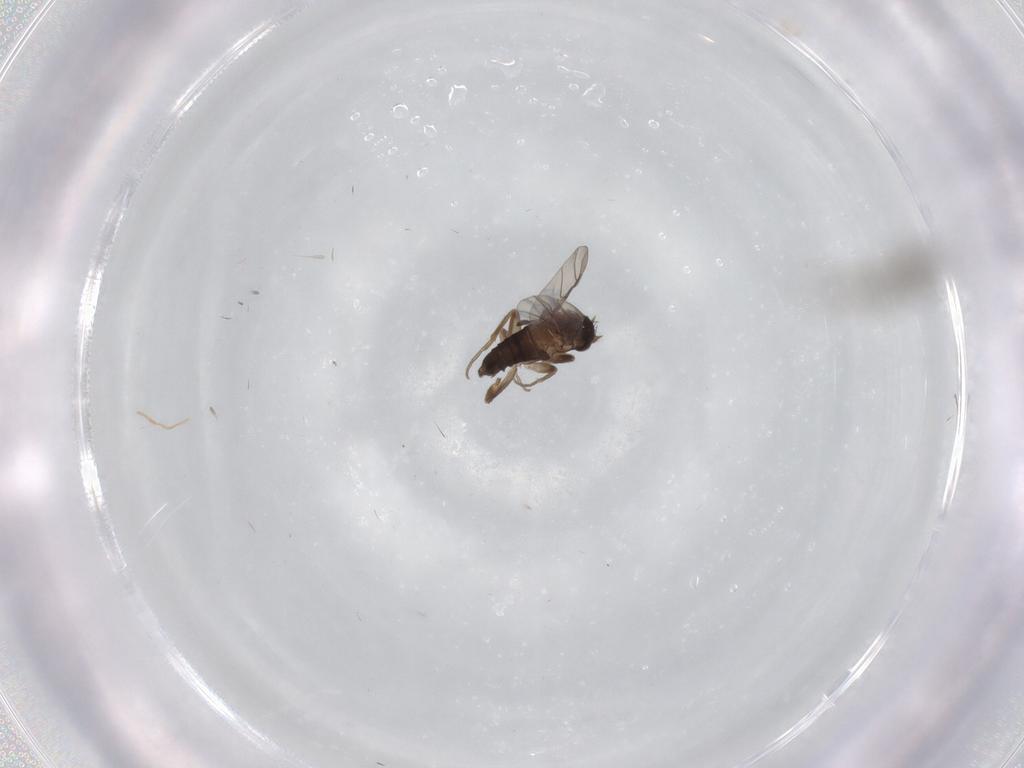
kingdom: Animalia
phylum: Arthropoda
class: Insecta
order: Diptera
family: Limoniidae
